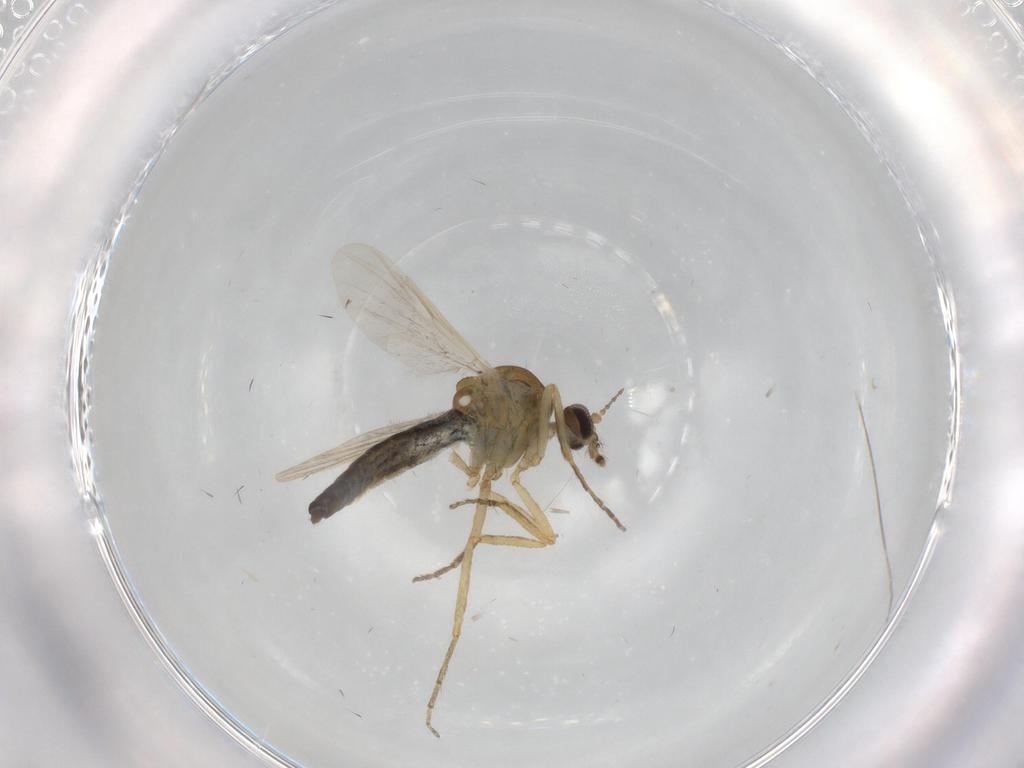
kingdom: Animalia
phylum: Arthropoda
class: Insecta
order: Diptera
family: Ceratopogonidae
